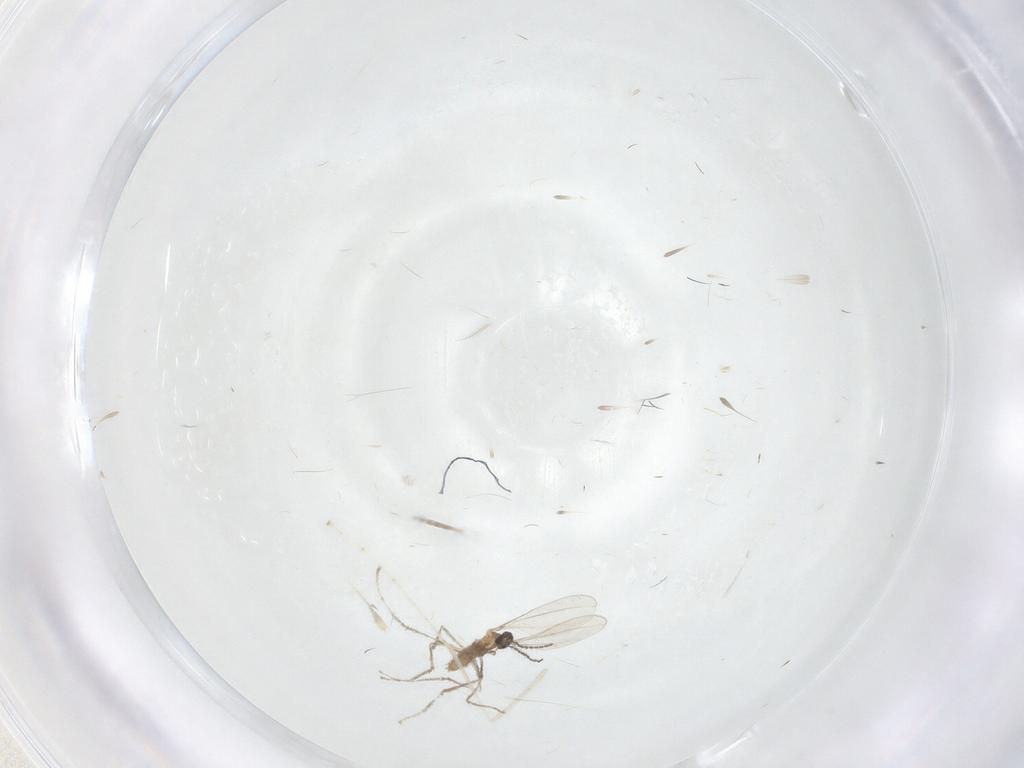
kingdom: Animalia
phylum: Arthropoda
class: Insecta
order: Diptera
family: Cecidomyiidae
